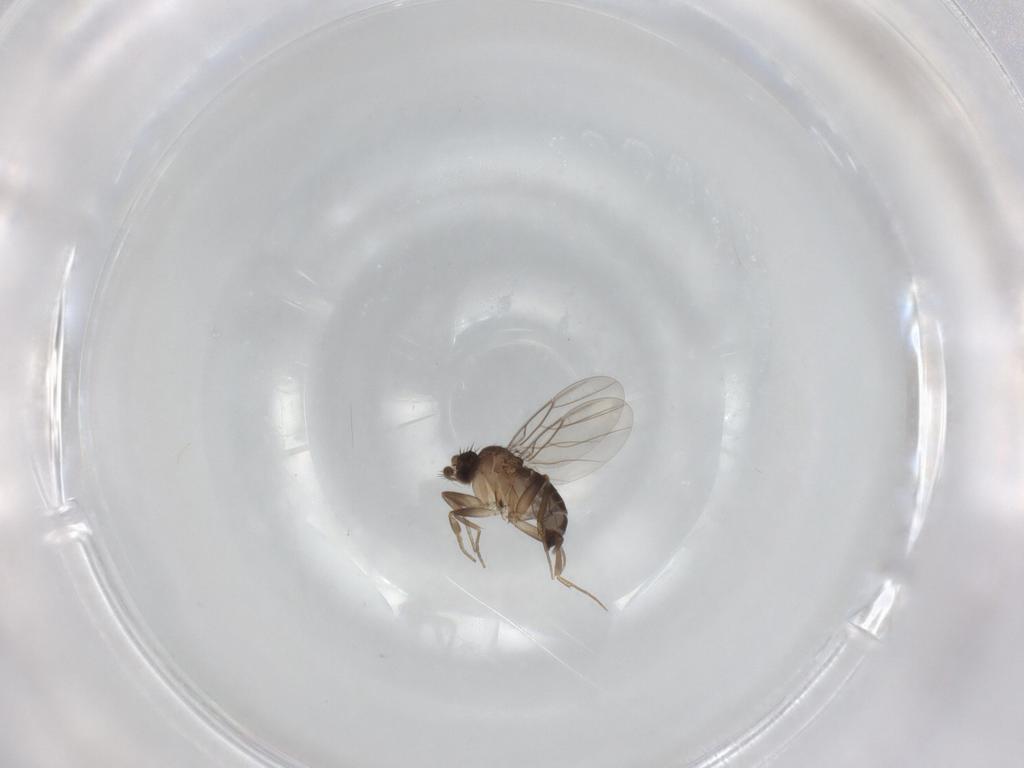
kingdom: Animalia
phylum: Arthropoda
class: Insecta
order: Diptera
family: Phoridae
